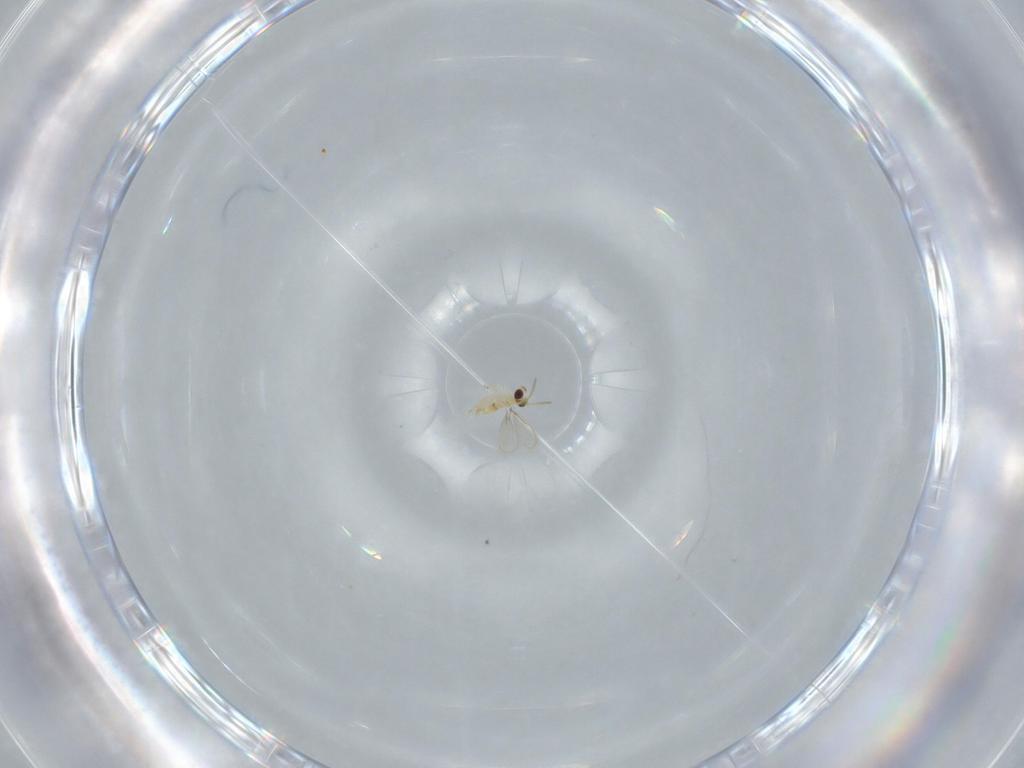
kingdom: Animalia
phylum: Arthropoda
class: Insecta
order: Hymenoptera
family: Aphelinidae
